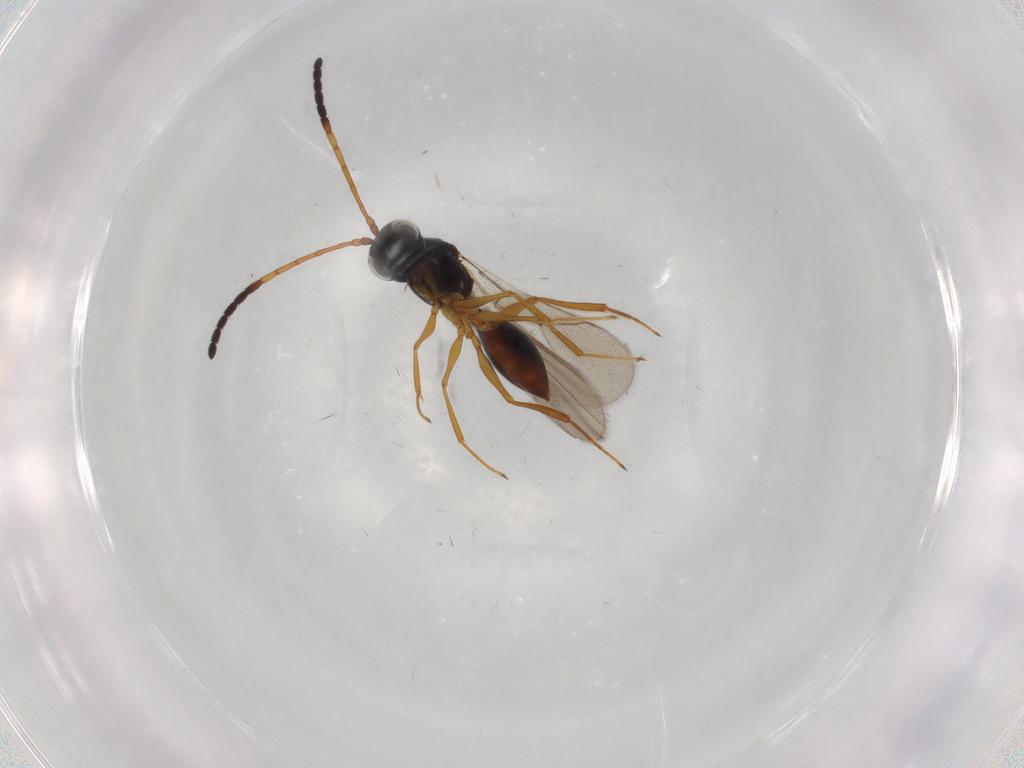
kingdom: Animalia
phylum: Arthropoda
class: Insecta
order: Hymenoptera
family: Figitidae
